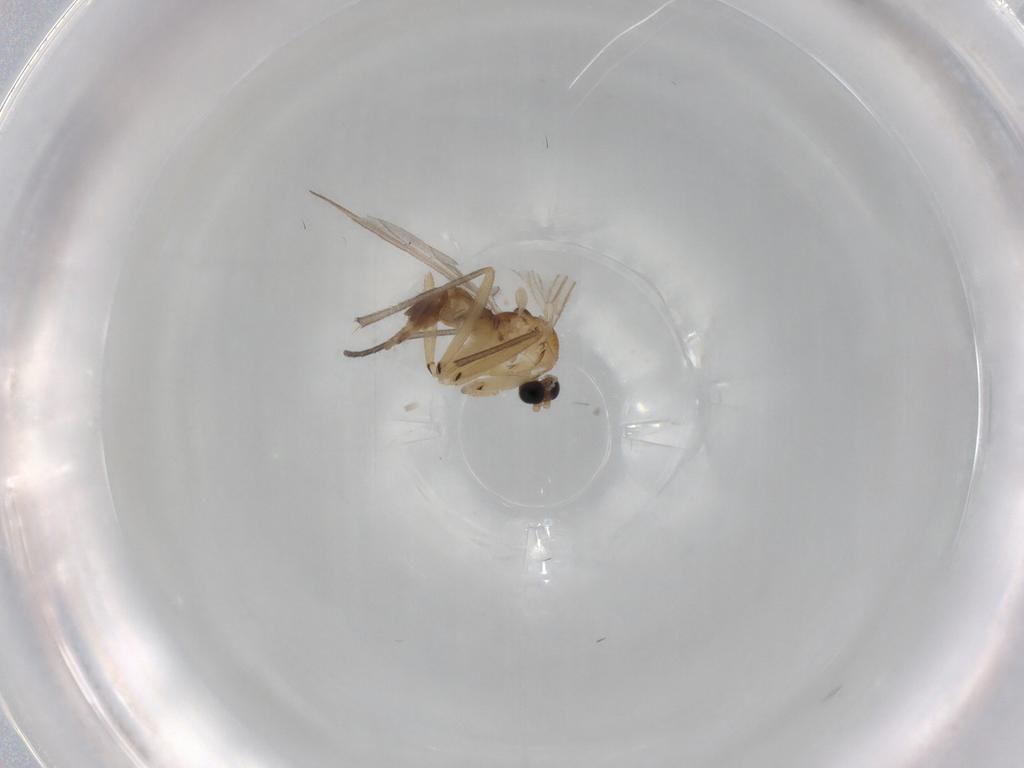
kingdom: Animalia
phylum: Arthropoda
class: Insecta
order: Diptera
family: Sciaridae
